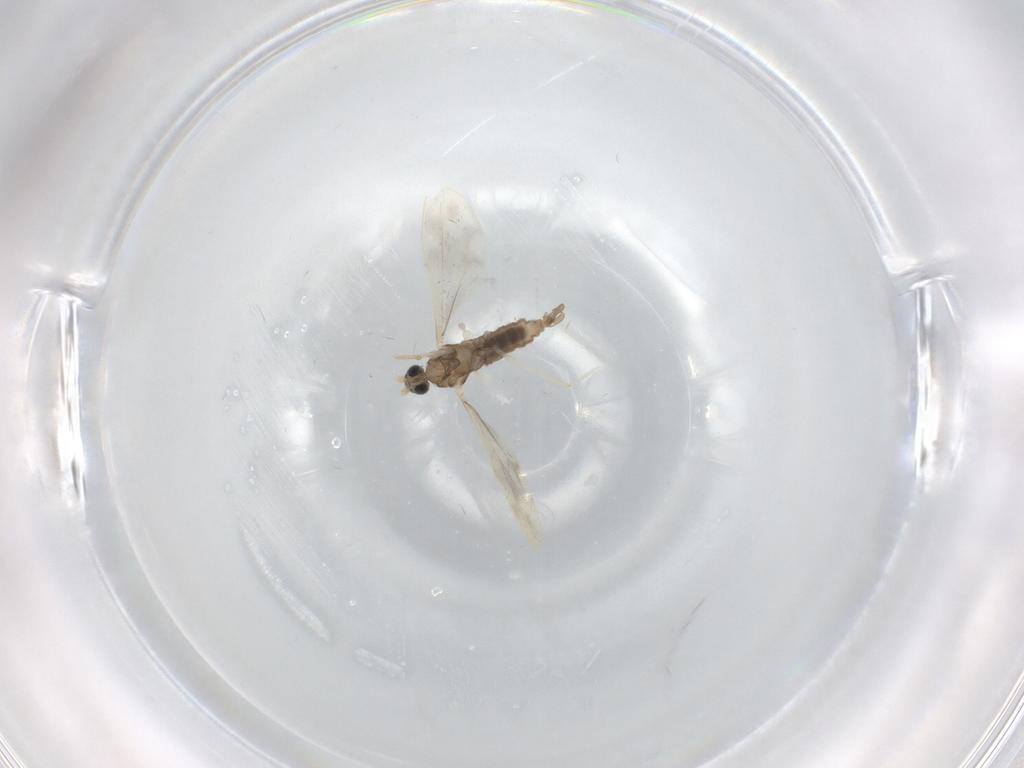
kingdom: Animalia
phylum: Arthropoda
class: Insecta
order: Diptera
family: Cecidomyiidae
